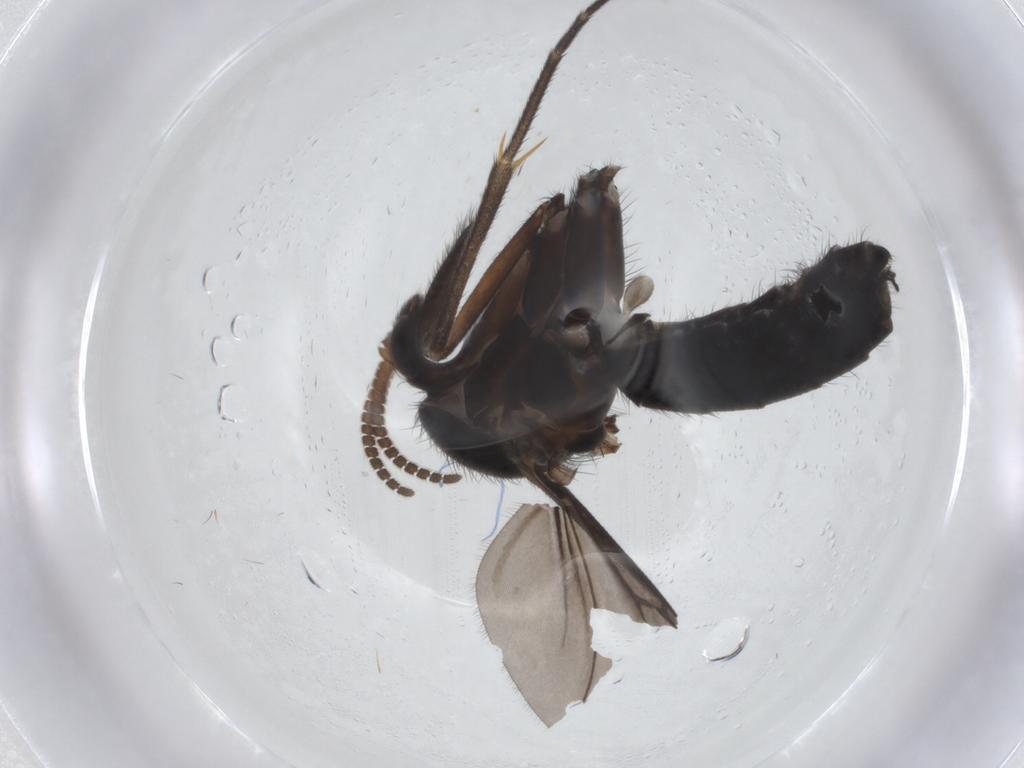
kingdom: Animalia
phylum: Arthropoda
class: Insecta
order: Diptera
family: Mycetophilidae
